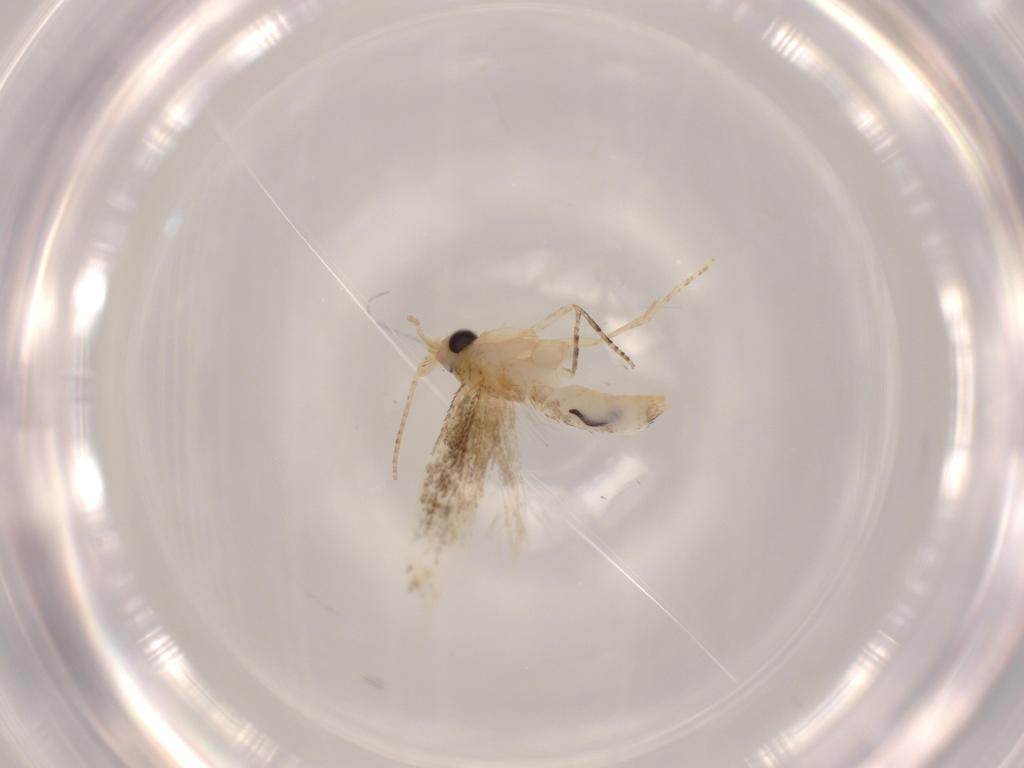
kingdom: Animalia
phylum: Arthropoda
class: Insecta
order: Lepidoptera
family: Bucculatricidae
